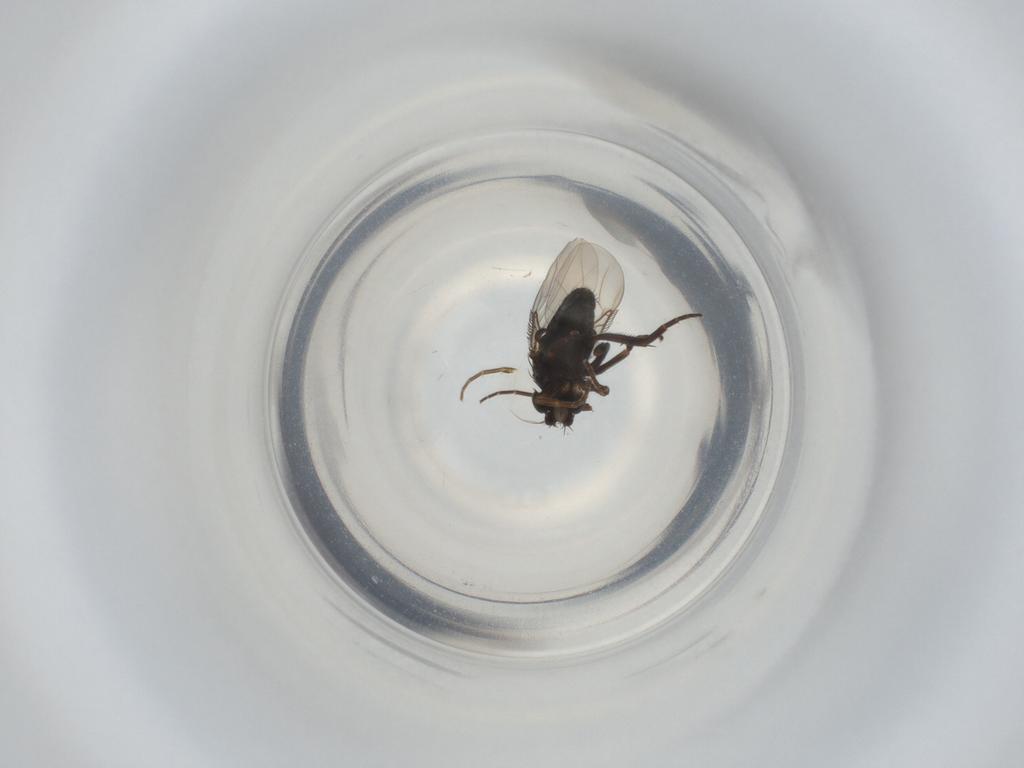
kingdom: Animalia
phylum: Arthropoda
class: Insecta
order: Diptera
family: Phoridae
